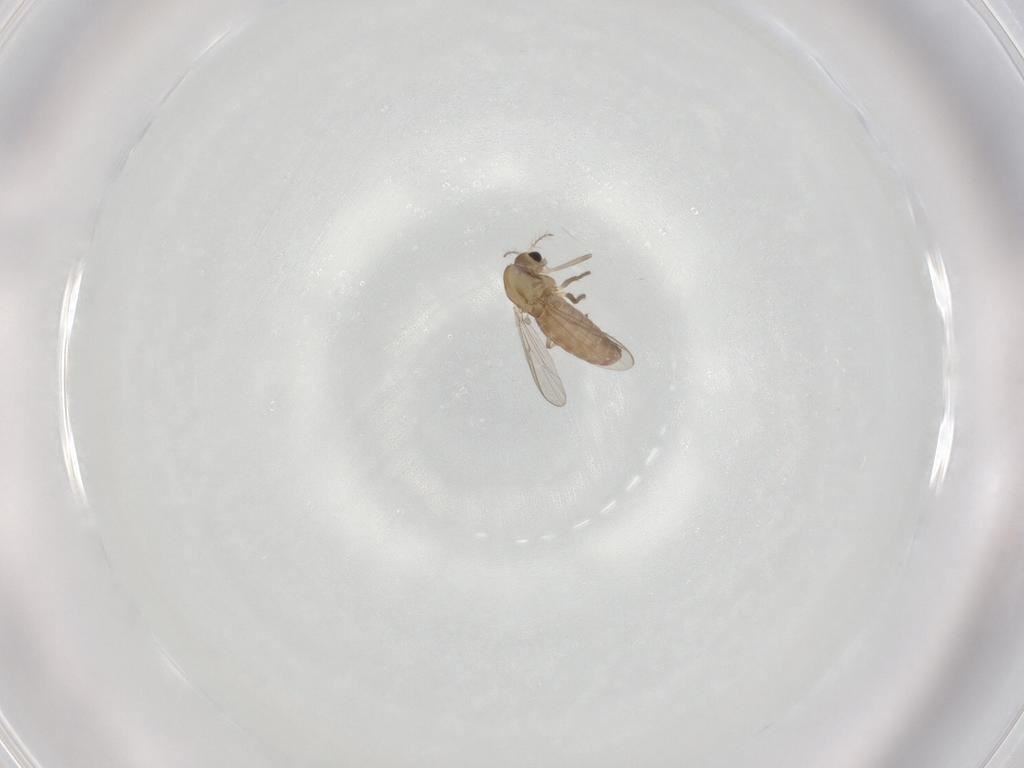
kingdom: Animalia
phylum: Arthropoda
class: Insecta
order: Diptera
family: Chironomidae
